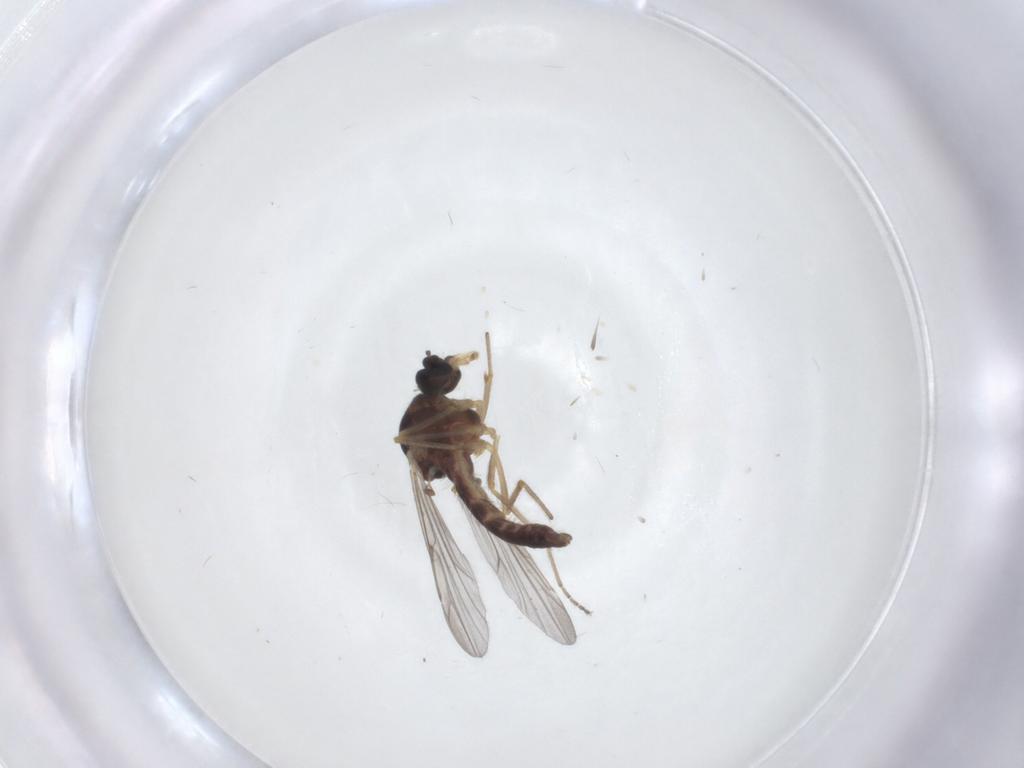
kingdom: Animalia
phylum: Arthropoda
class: Insecta
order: Diptera
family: Ceratopogonidae
